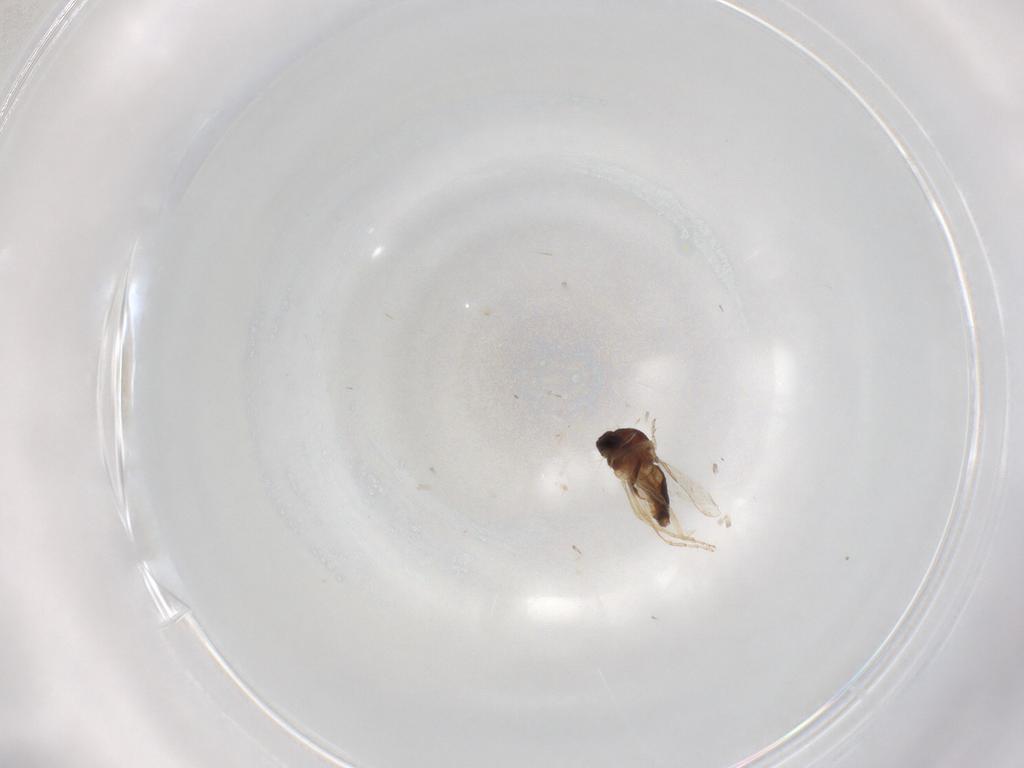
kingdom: Animalia
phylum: Arthropoda
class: Insecta
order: Diptera
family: Ceratopogonidae
